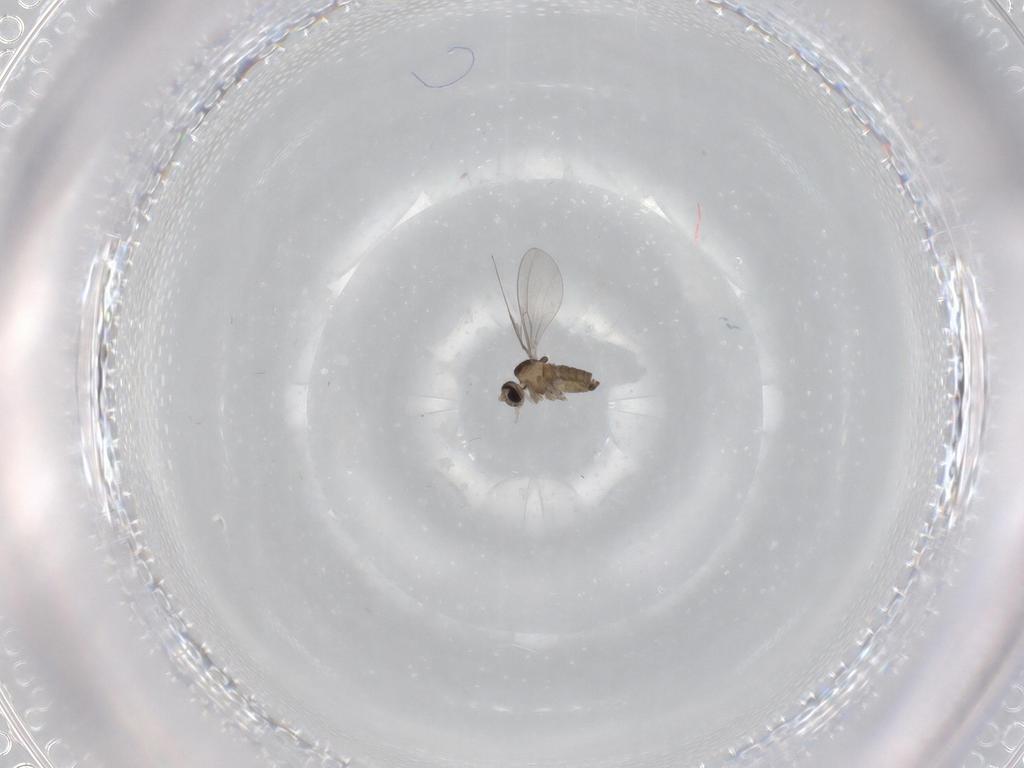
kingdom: Animalia
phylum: Arthropoda
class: Insecta
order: Diptera
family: Cecidomyiidae
